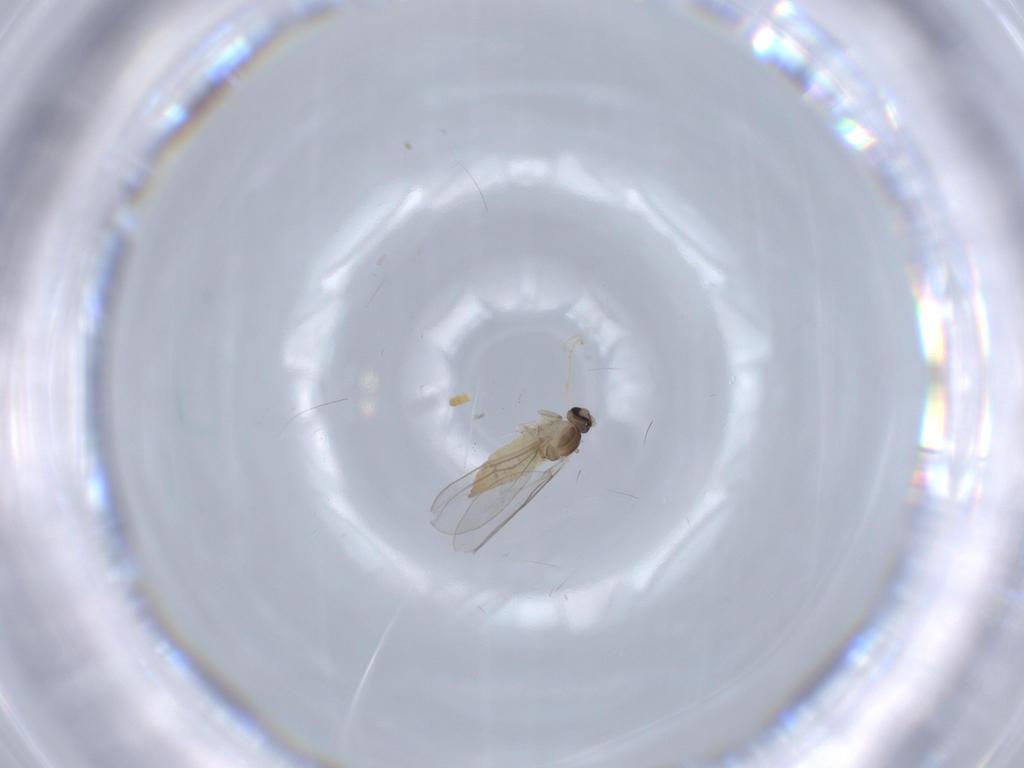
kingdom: Animalia
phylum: Arthropoda
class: Insecta
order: Diptera
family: Cecidomyiidae
